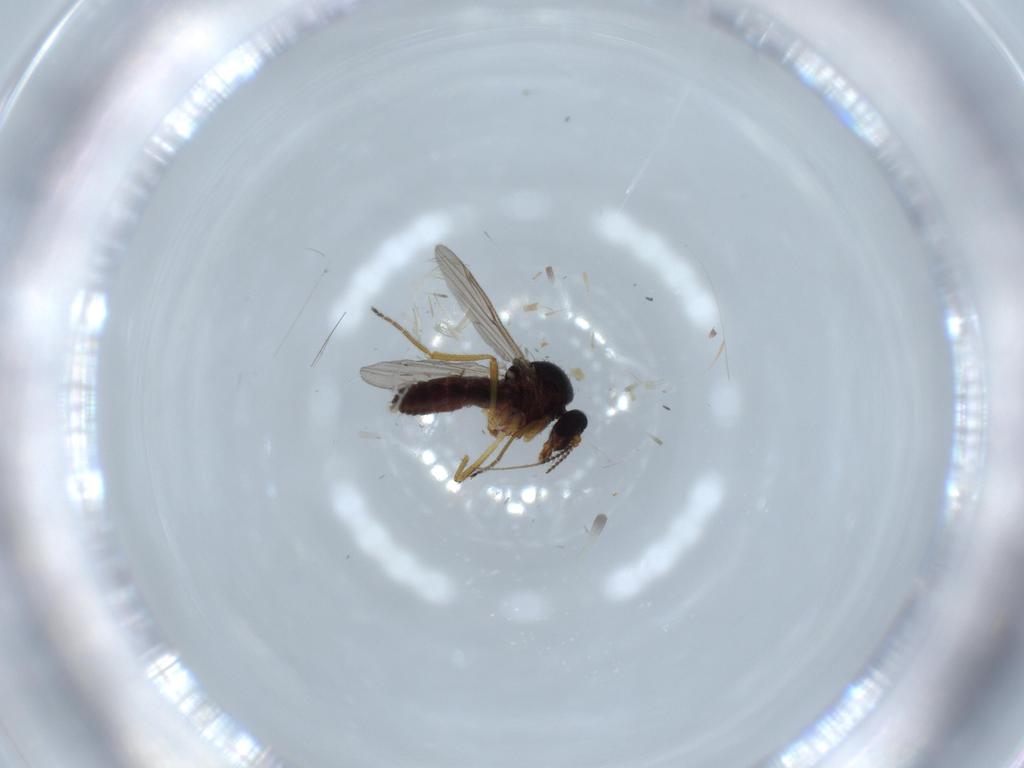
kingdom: Animalia
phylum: Arthropoda
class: Insecta
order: Diptera
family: Ceratopogonidae
